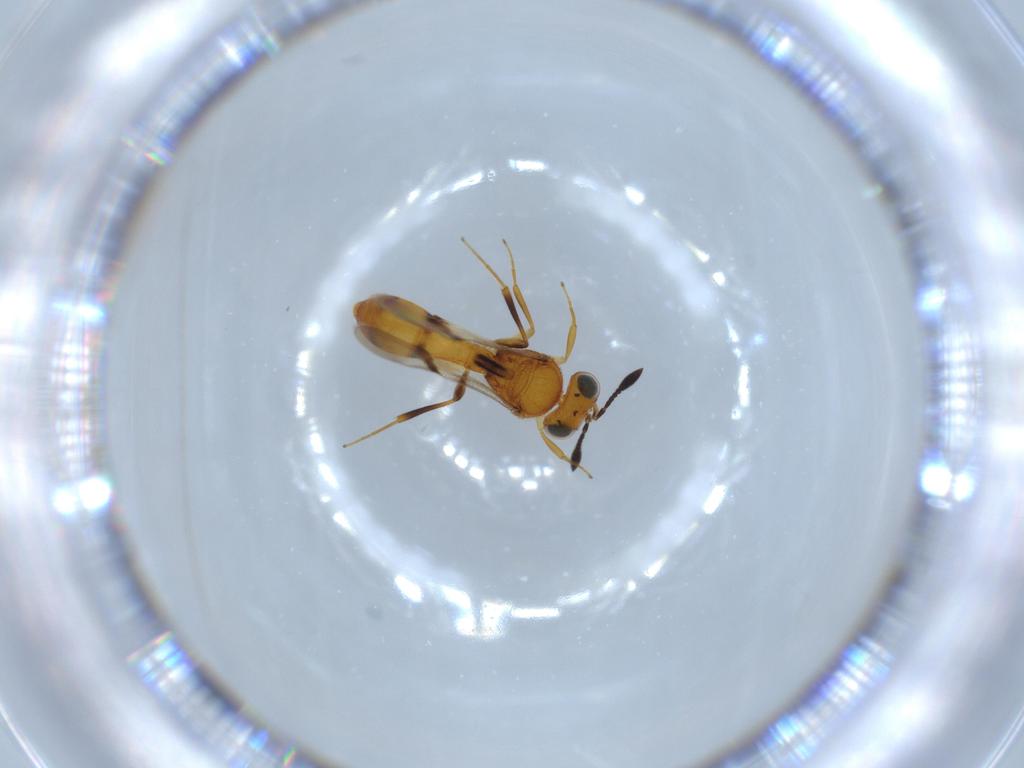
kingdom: Animalia
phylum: Arthropoda
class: Insecta
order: Hymenoptera
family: Scelionidae
